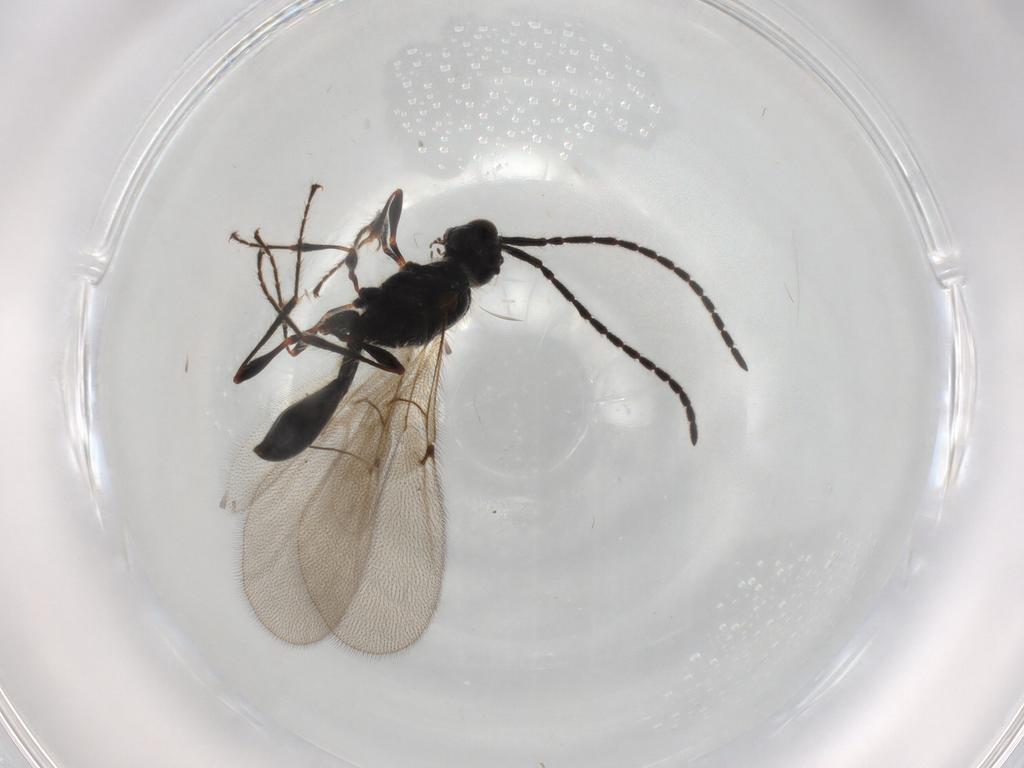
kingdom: Animalia
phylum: Arthropoda
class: Insecta
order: Hymenoptera
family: Diapriidae
